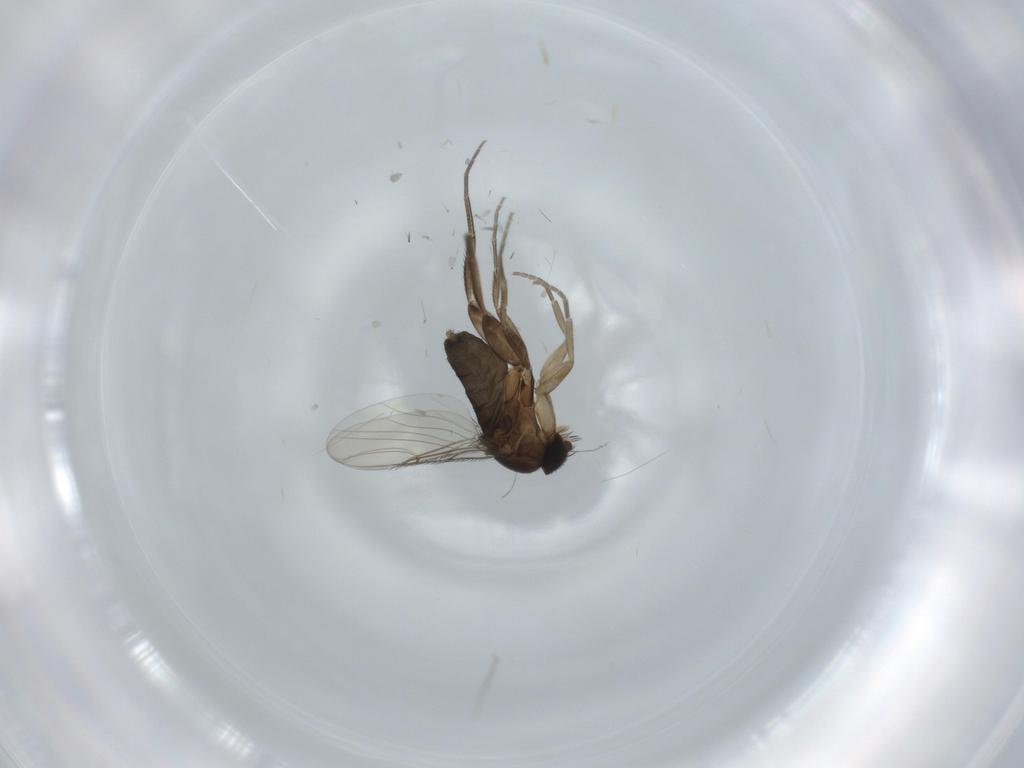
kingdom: Animalia
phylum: Arthropoda
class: Insecta
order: Diptera
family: Phoridae
